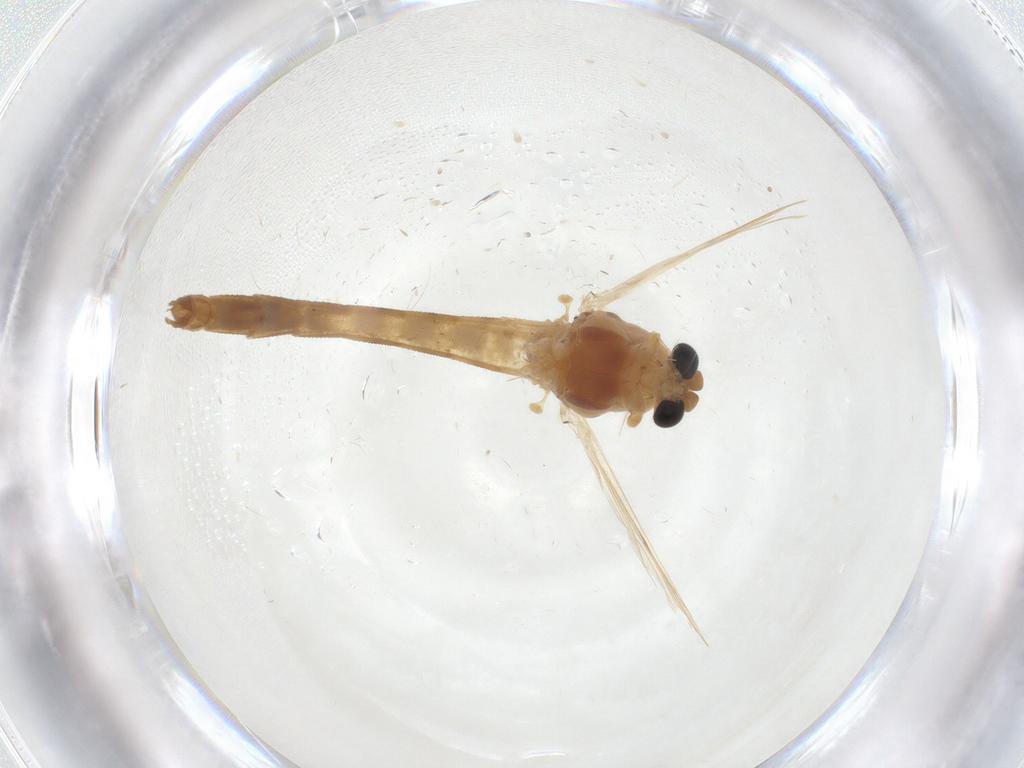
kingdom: Animalia
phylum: Arthropoda
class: Insecta
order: Diptera
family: Chironomidae
